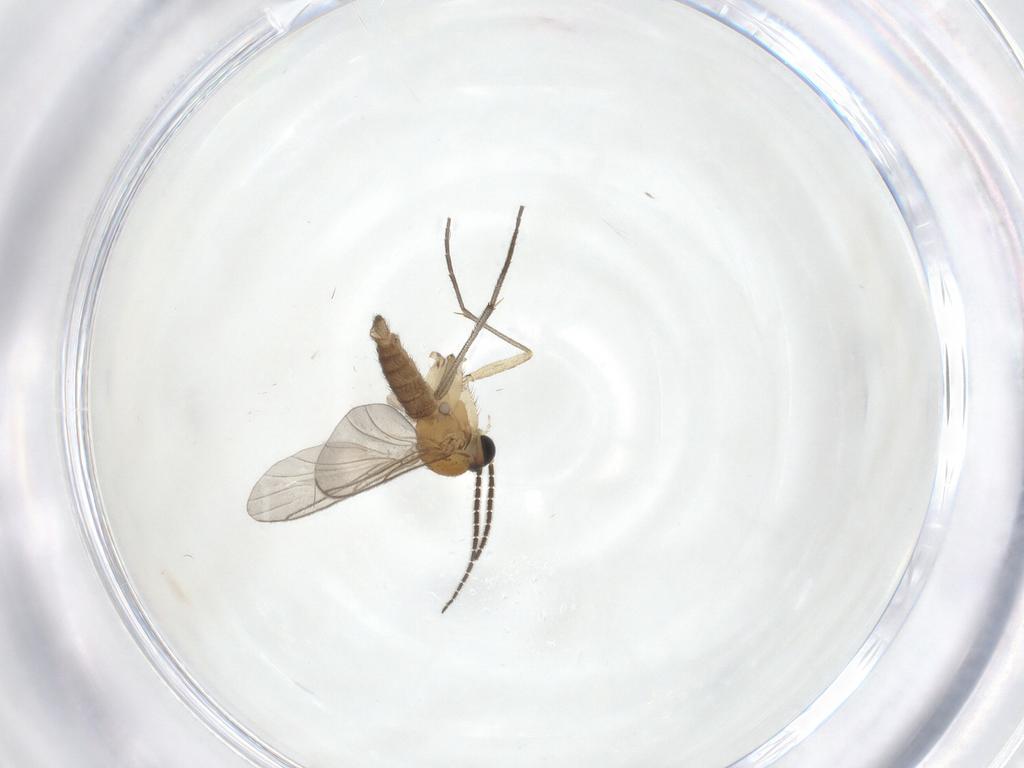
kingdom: Animalia
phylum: Arthropoda
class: Insecta
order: Diptera
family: Sciaridae
